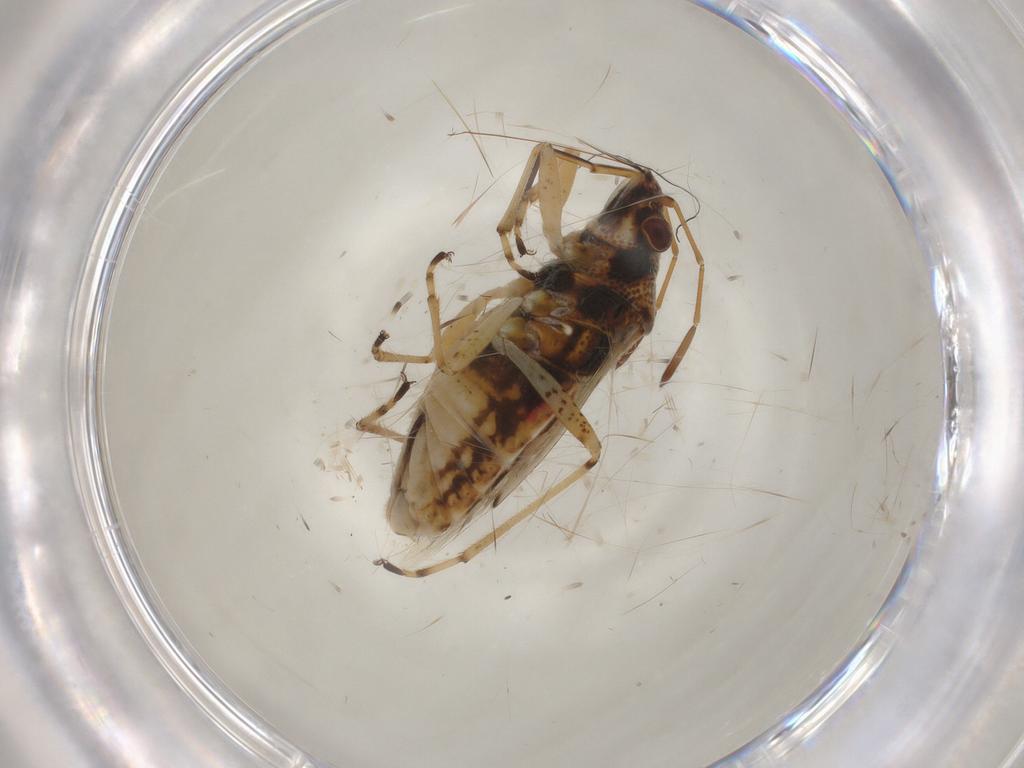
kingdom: Animalia
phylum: Arthropoda
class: Insecta
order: Hemiptera
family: Lygaeidae
